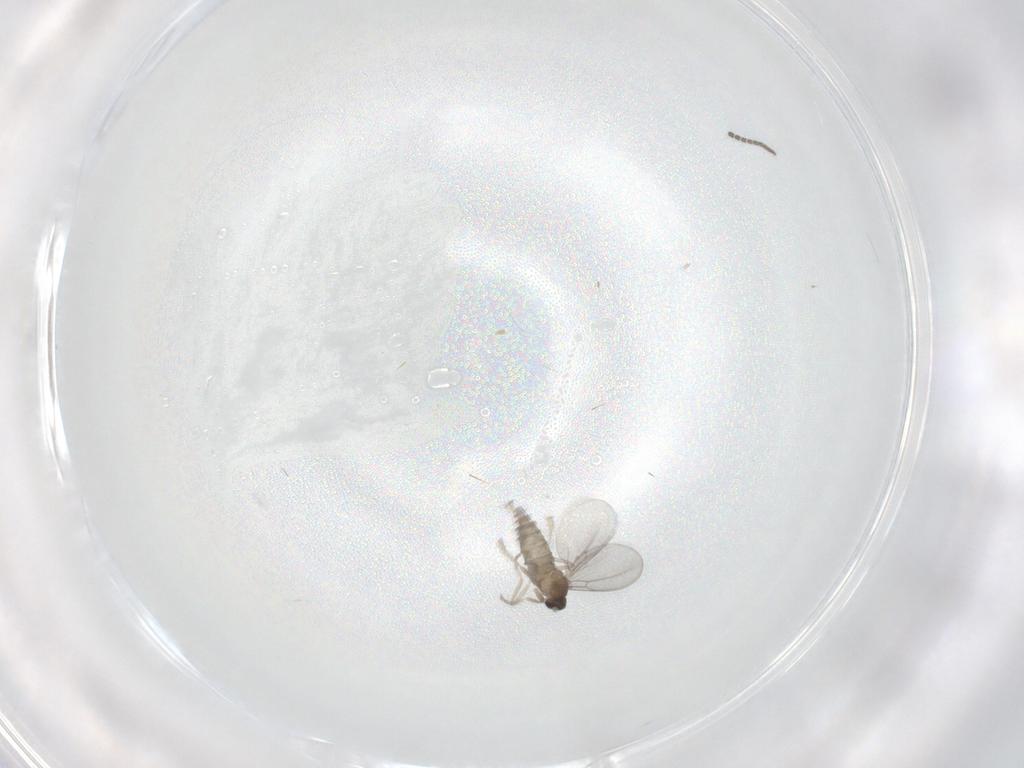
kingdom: Animalia
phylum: Arthropoda
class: Insecta
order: Diptera
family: Sciaridae
